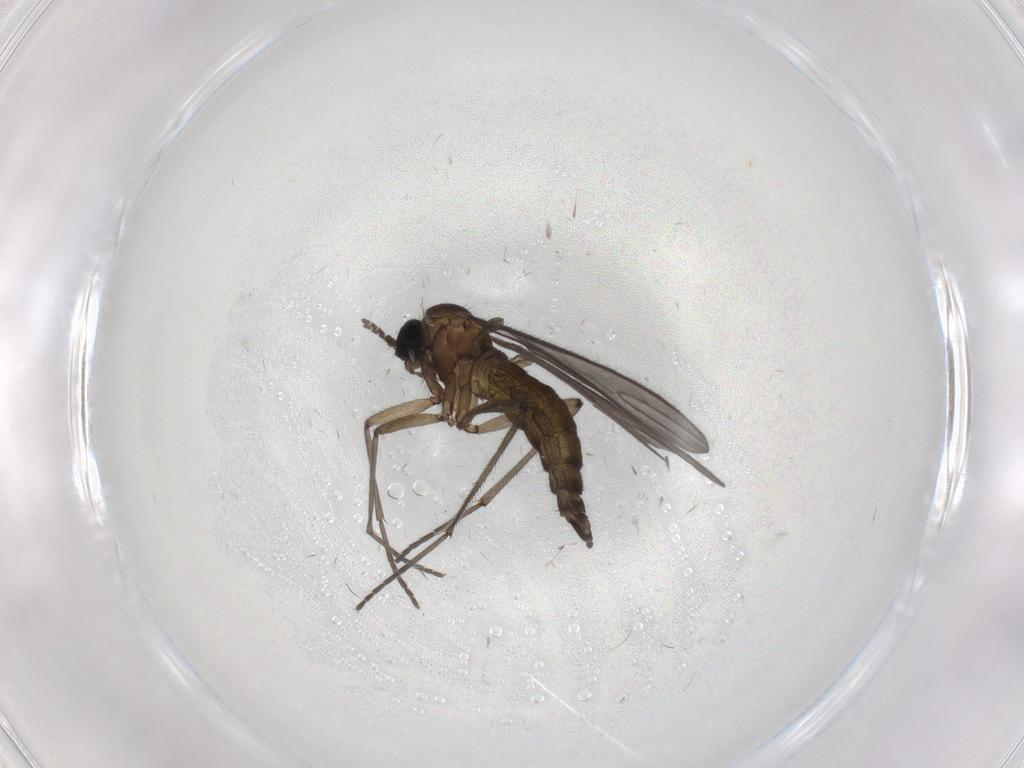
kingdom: Animalia
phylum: Arthropoda
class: Insecta
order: Diptera
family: Sciaridae
